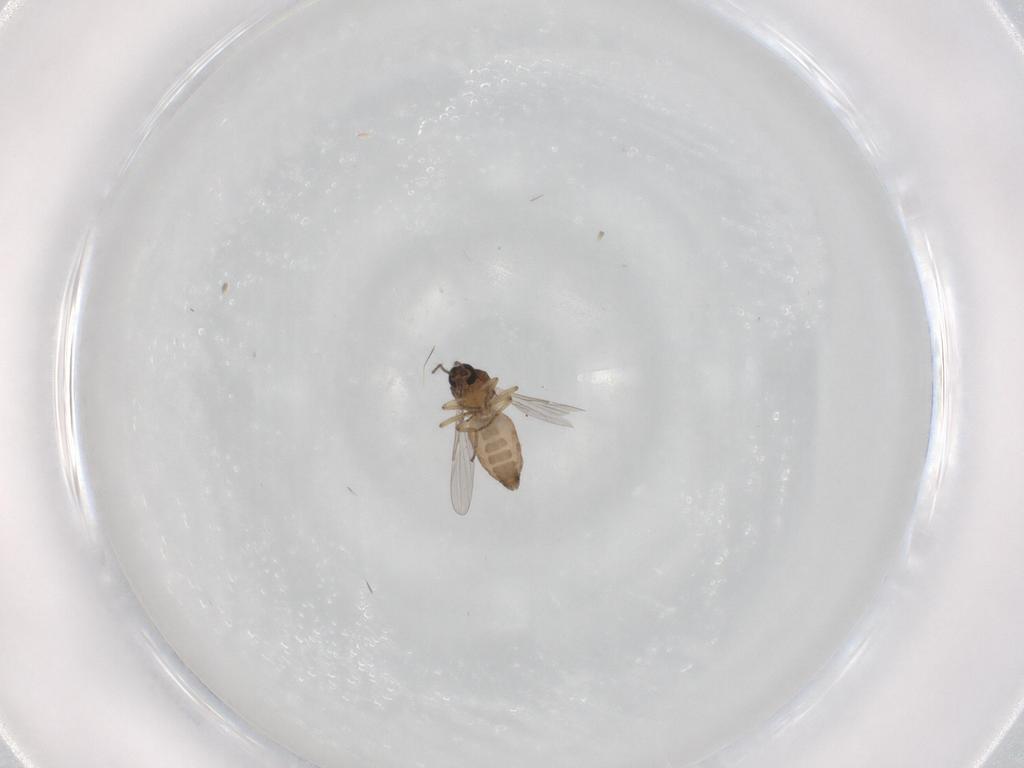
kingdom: Animalia
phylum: Arthropoda
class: Insecta
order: Diptera
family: Ceratopogonidae
